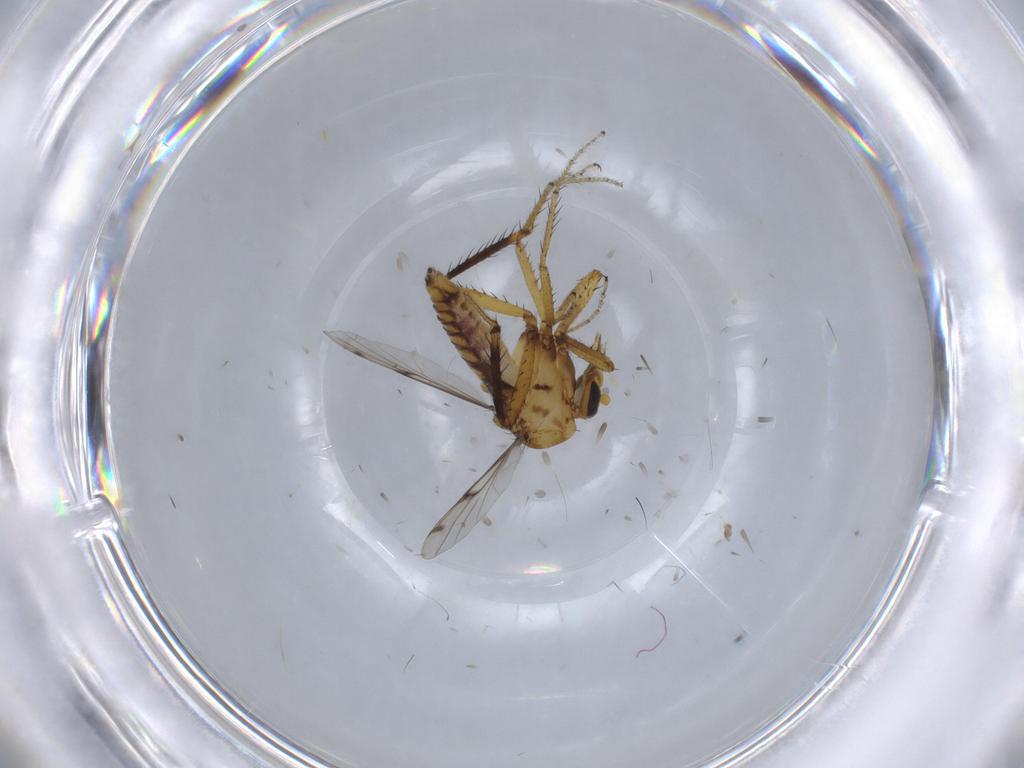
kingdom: Animalia
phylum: Arthropoda
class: Insecta
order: Diptera
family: Ceratopogonidae
